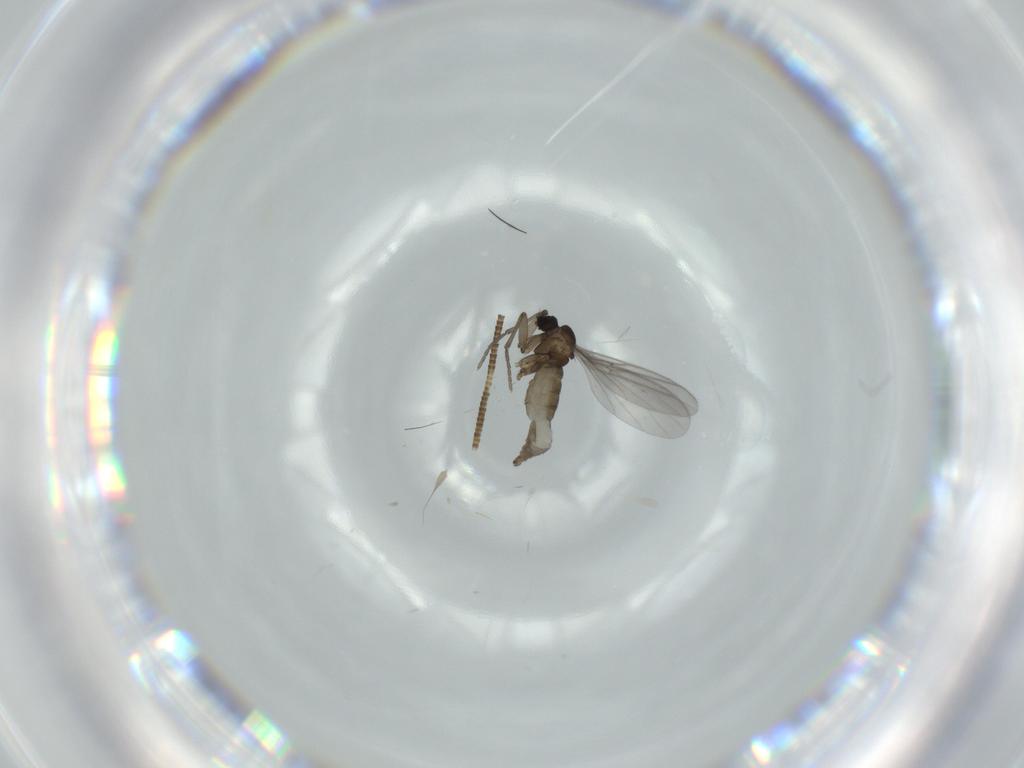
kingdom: Animalia
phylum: Arthropoda
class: Insecta
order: Diptera
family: Sciaridae
